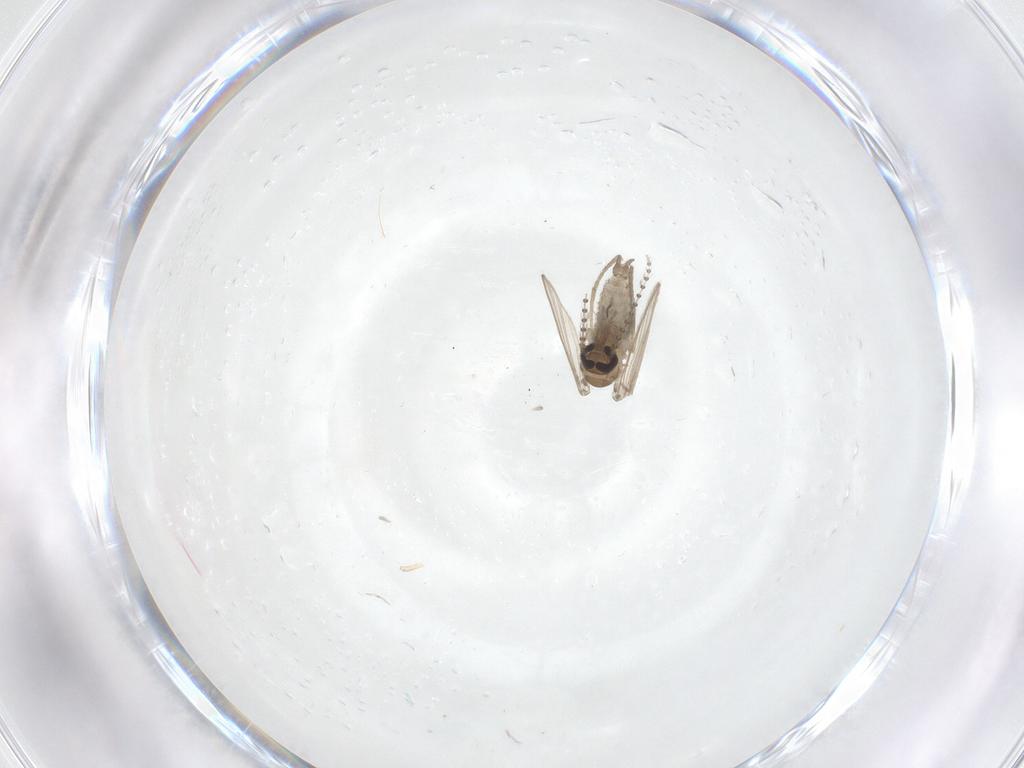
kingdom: Animalia
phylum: Arthropoda
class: Insecta
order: Diptera
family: Psychodidae
